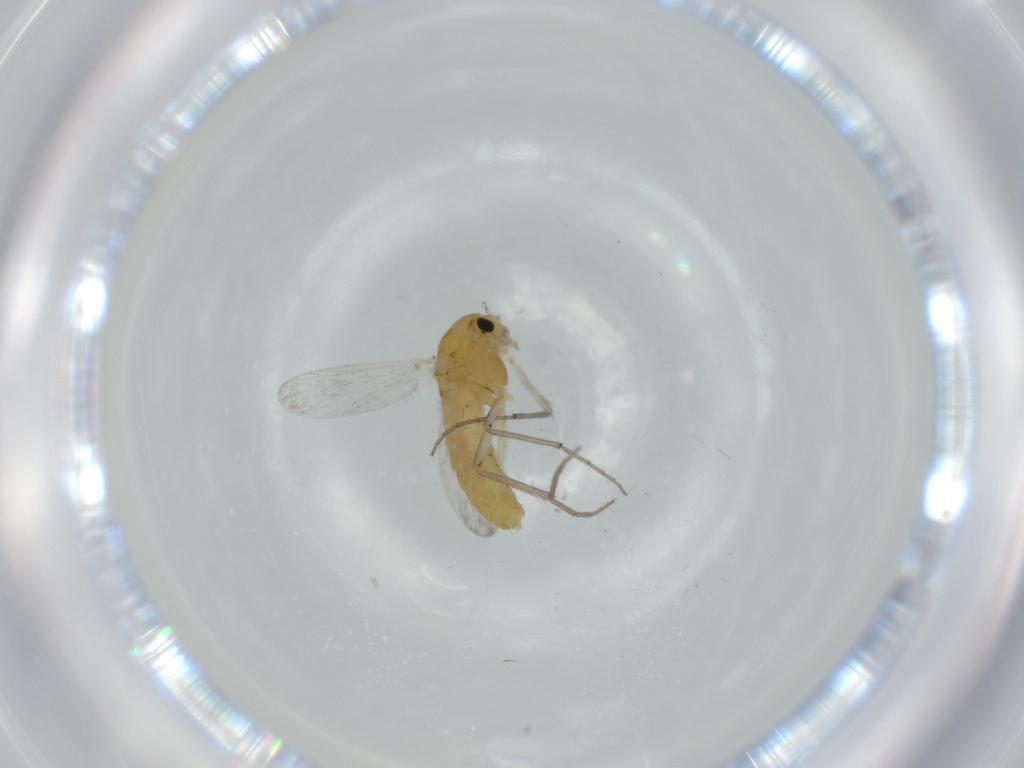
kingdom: Animalia
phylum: Arthropoda
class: Insecta
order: Diptera
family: Chironomidae
